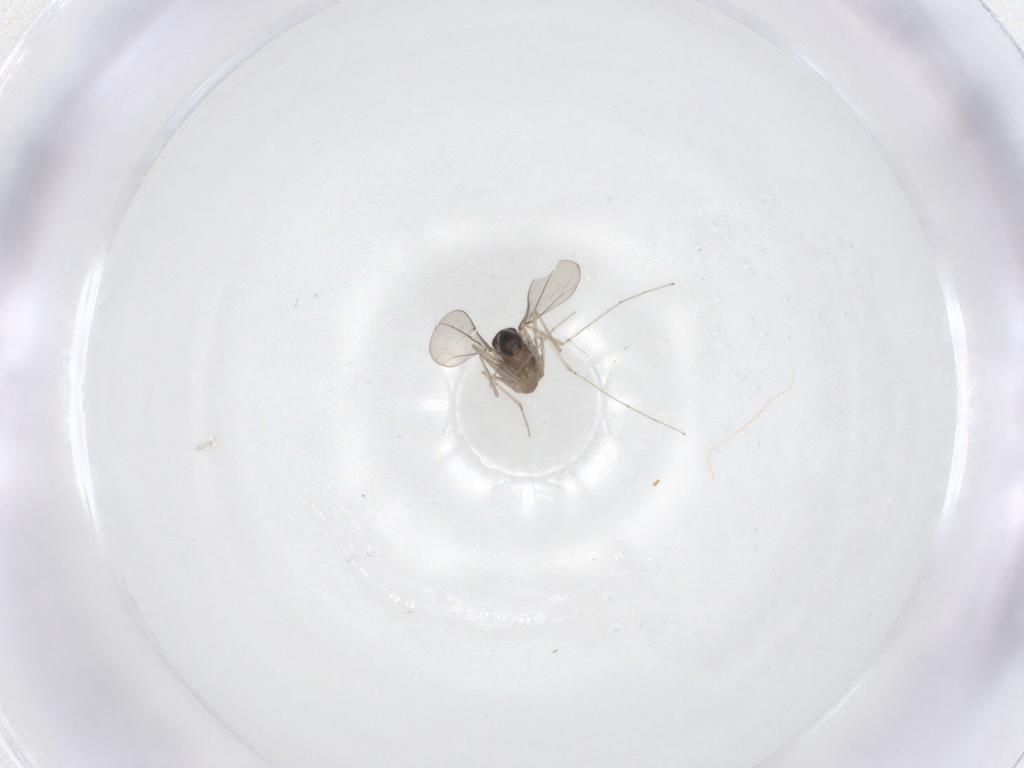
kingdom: Animalia
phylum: Arthropoda
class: Insecta
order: Diptera
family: Cecidomyiidae
